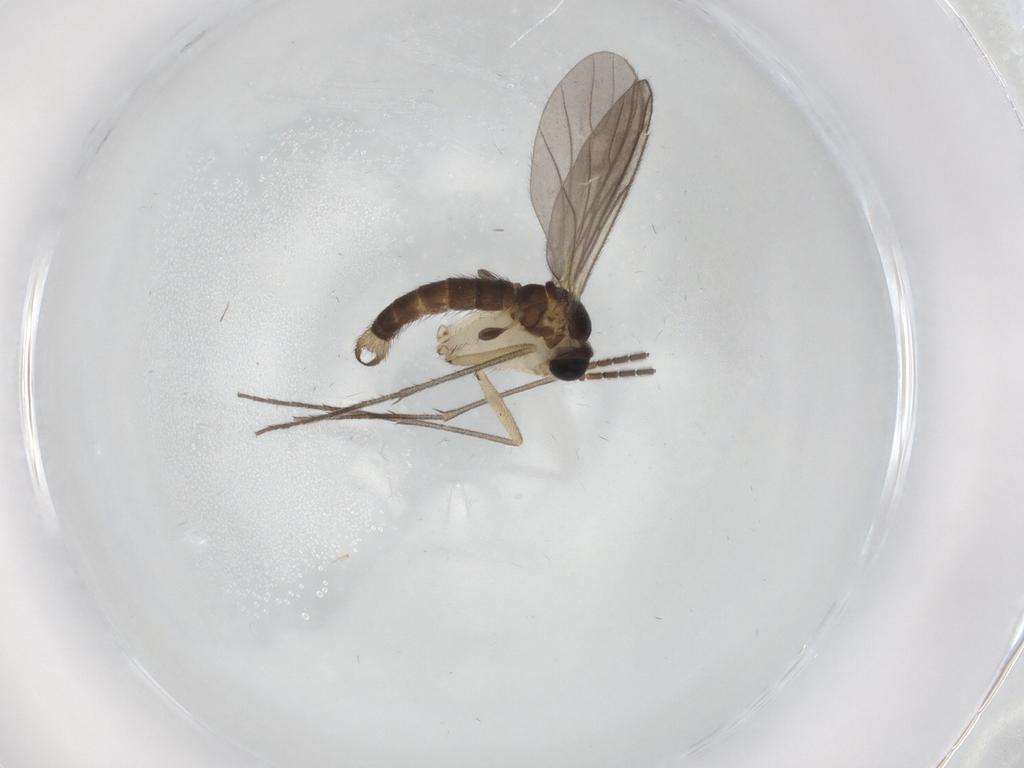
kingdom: Animalia
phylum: Arthropoda
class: Insecta
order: Diptera
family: Sciaridae
